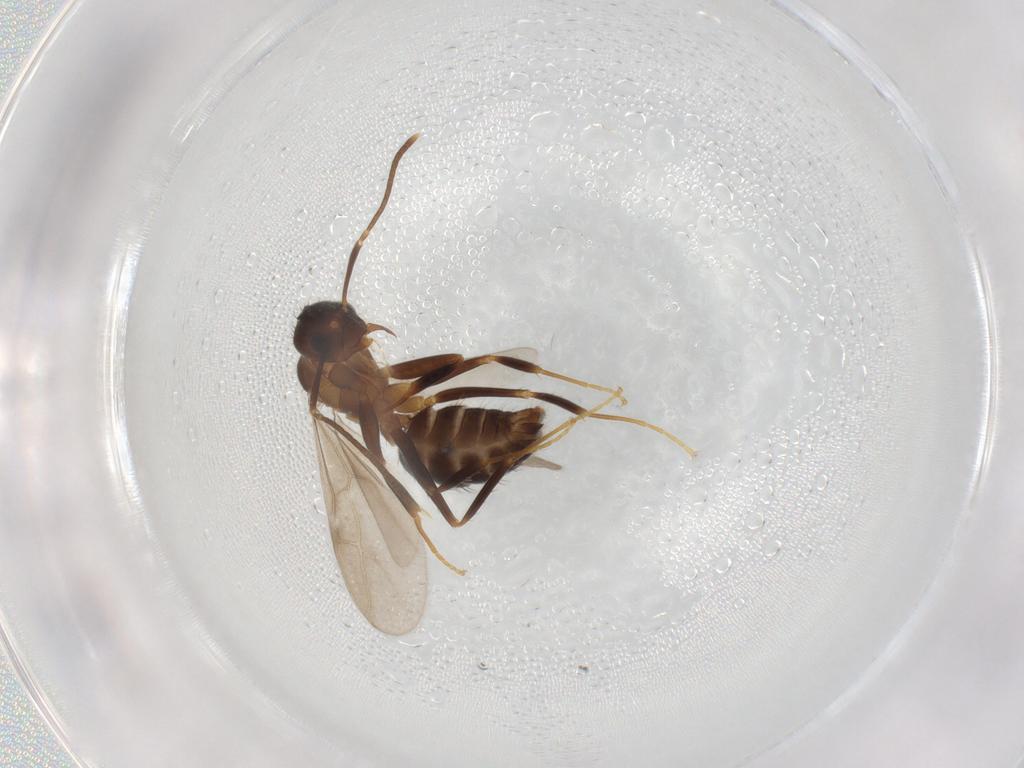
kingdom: Animalia
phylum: Arthropoda
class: Insecta
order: Hymenoptera
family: Formicidae
